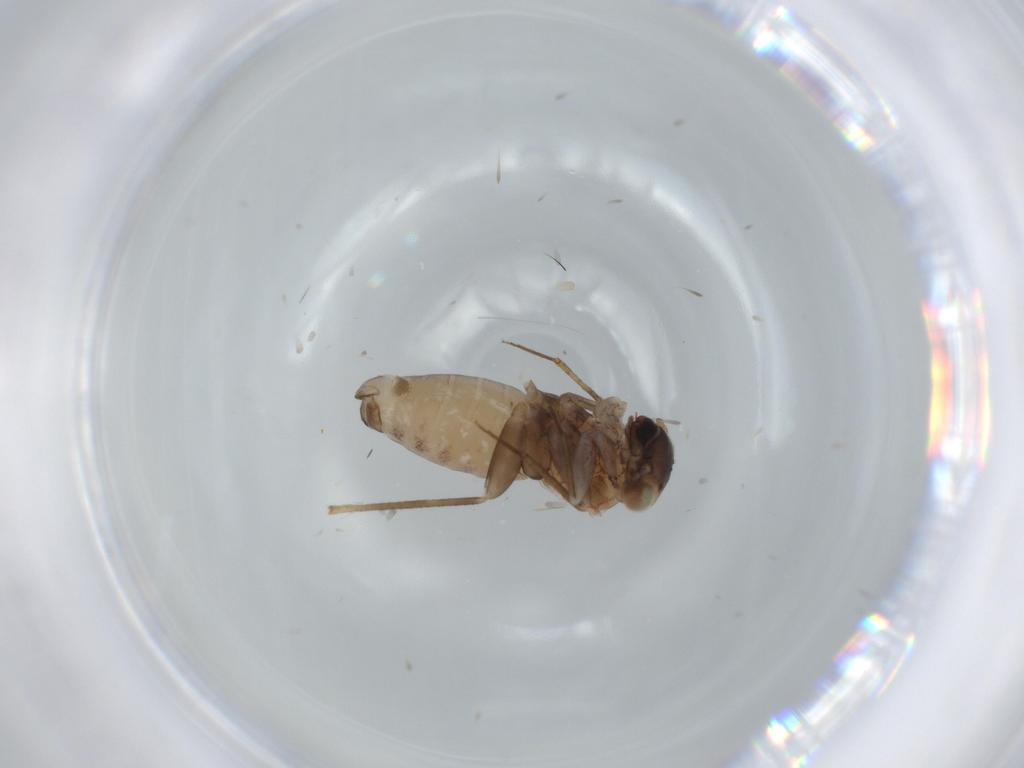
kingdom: Animalia
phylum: Arthropoda
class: Insecta
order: Psocodea
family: Lepidopsocidae
